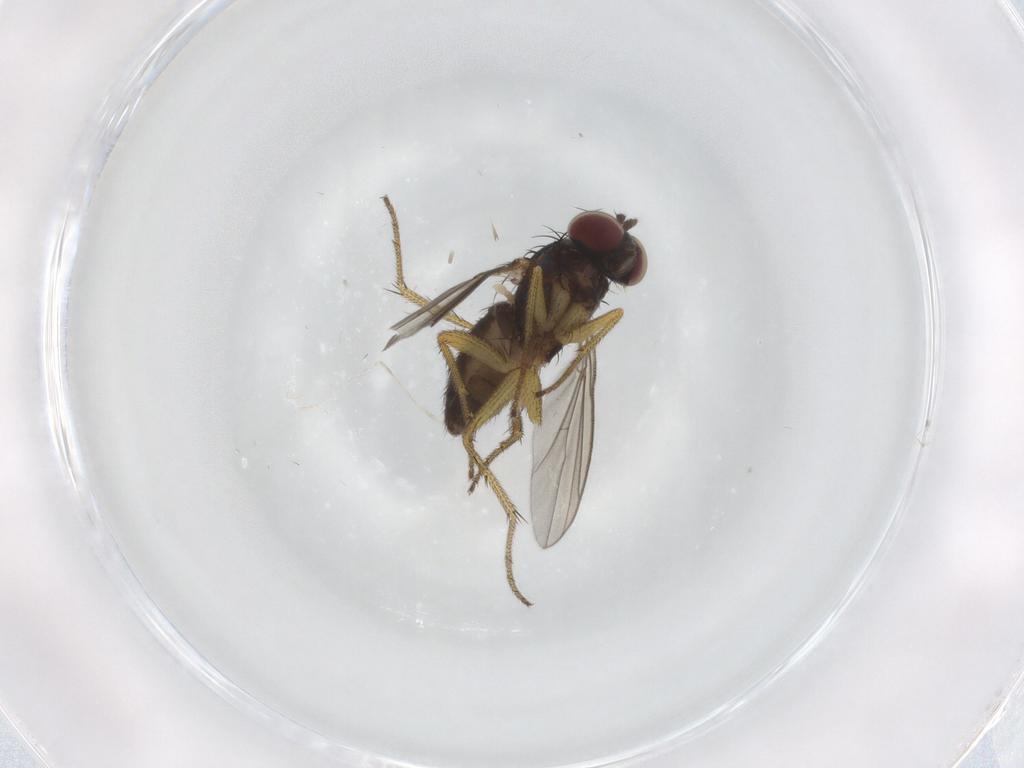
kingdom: Animalia
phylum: Arthropoda
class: Insecta
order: Diptera
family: Dolichopodidae
